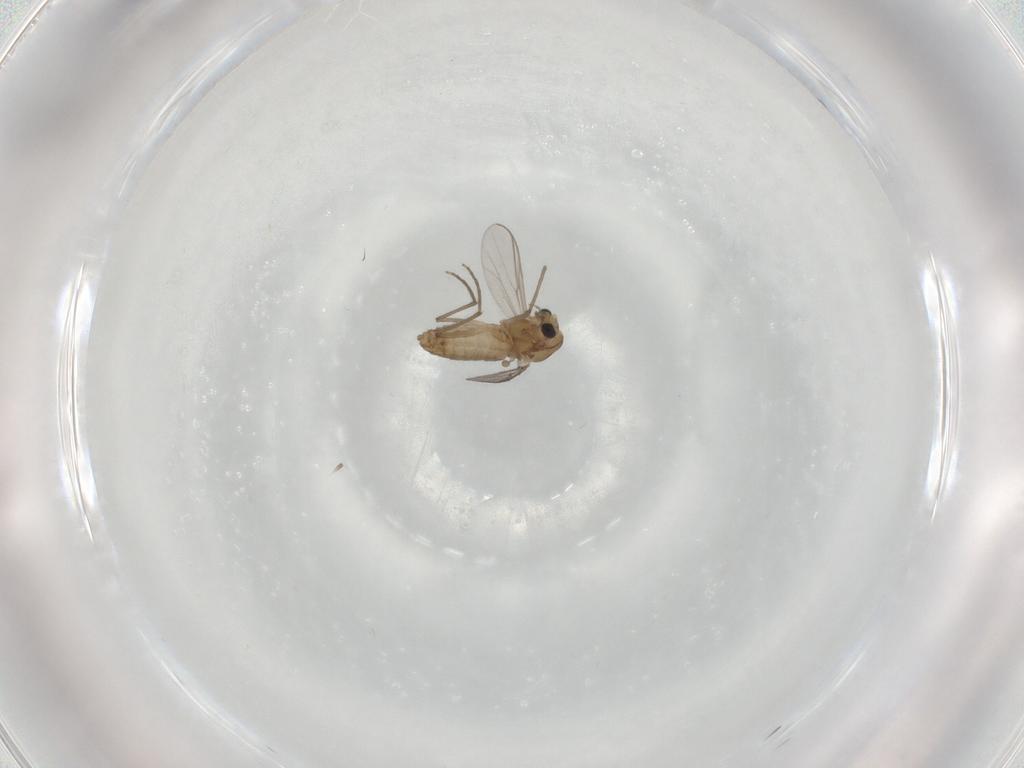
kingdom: Animalia
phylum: Arthropoda
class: Insecta
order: Diptera
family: Chironomidae
